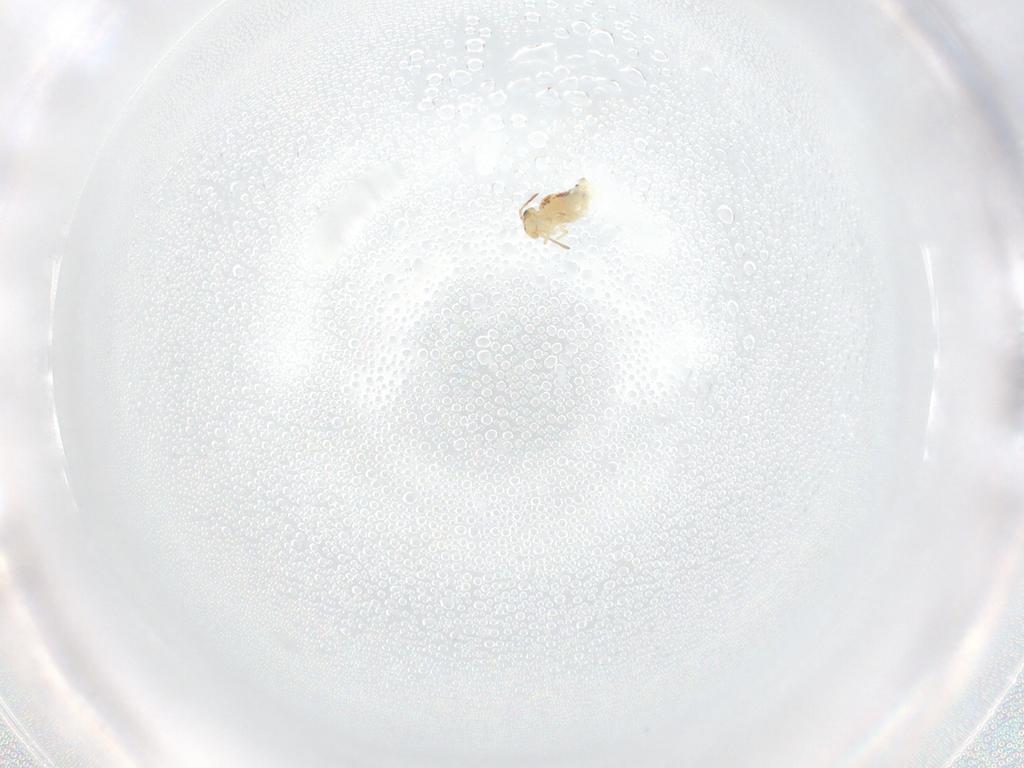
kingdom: Animalia
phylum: Arthropoda
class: Collembola
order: Symphypleona
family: Bourletiellidae
